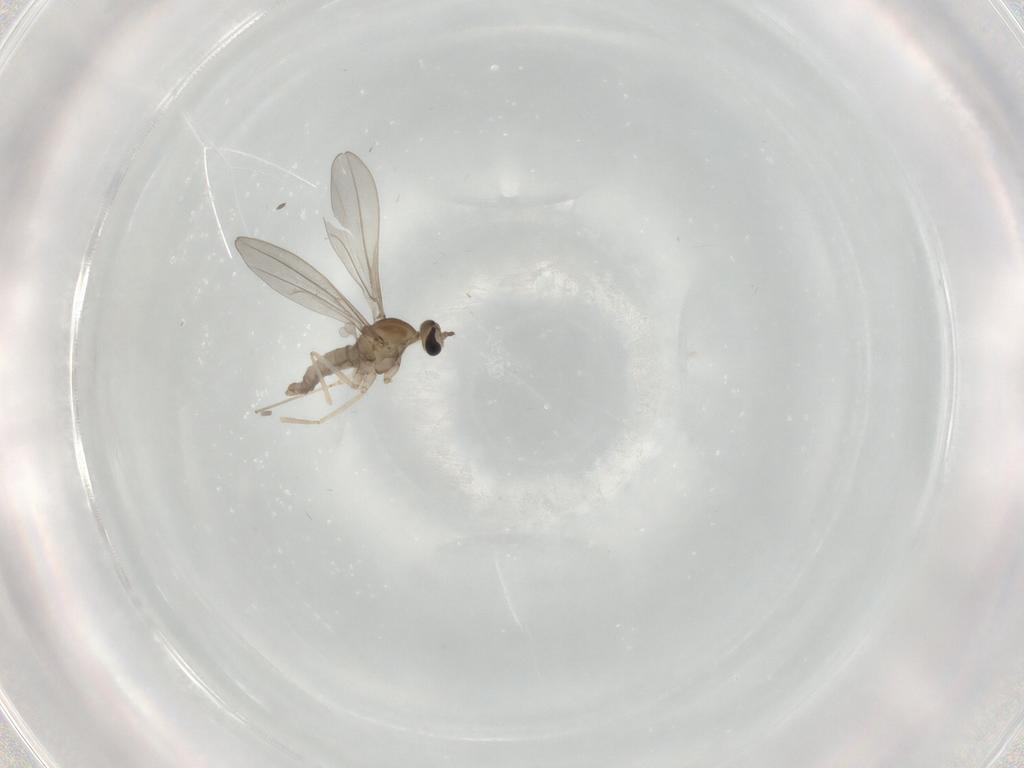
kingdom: Animalia
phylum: Arthropoda
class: Insecta
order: Diptera
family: Cecidomyiidae
